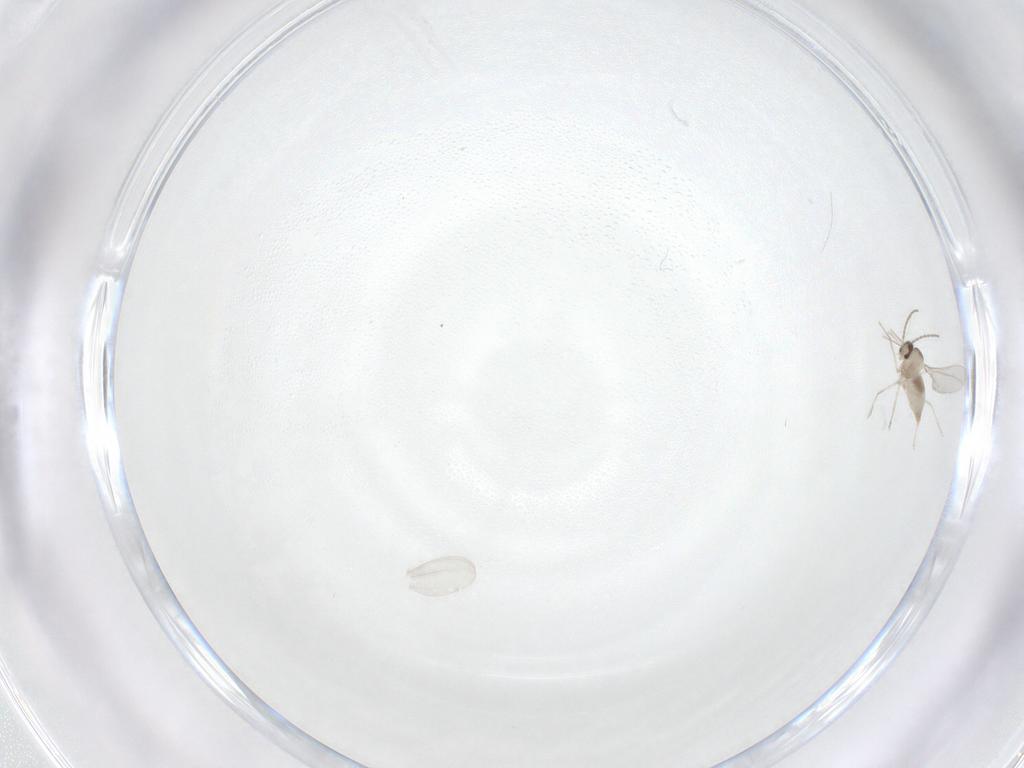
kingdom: Animalia
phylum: Arthropoda
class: Insecta
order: Diptera
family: Cecidomyiidae
